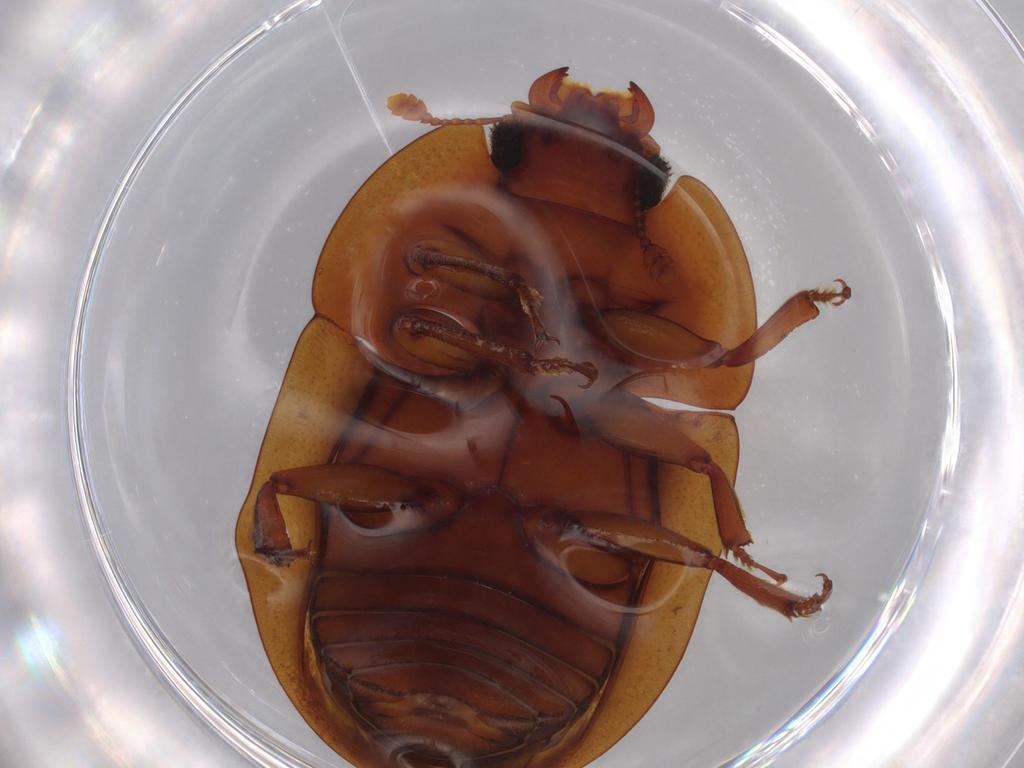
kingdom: Animalia
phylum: Arthropoda
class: Insecta
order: Coleoptera
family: Nitidulidae
